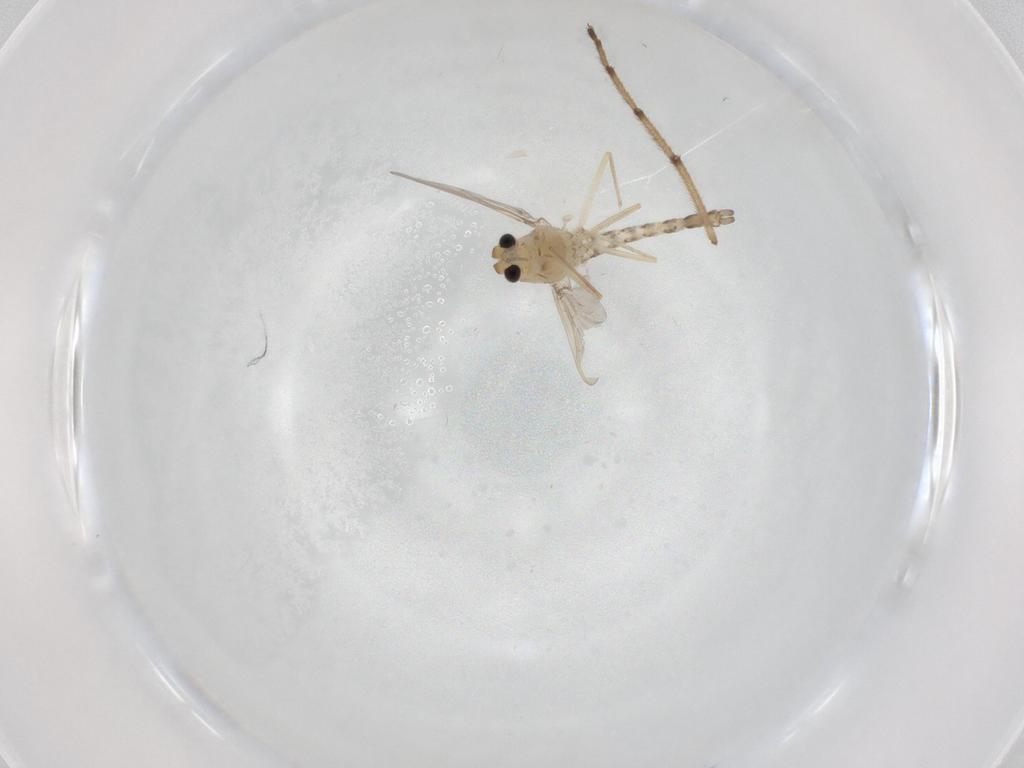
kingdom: Animalia
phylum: Arthropoda
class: Insecta
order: Diptera
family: Chironomidae
